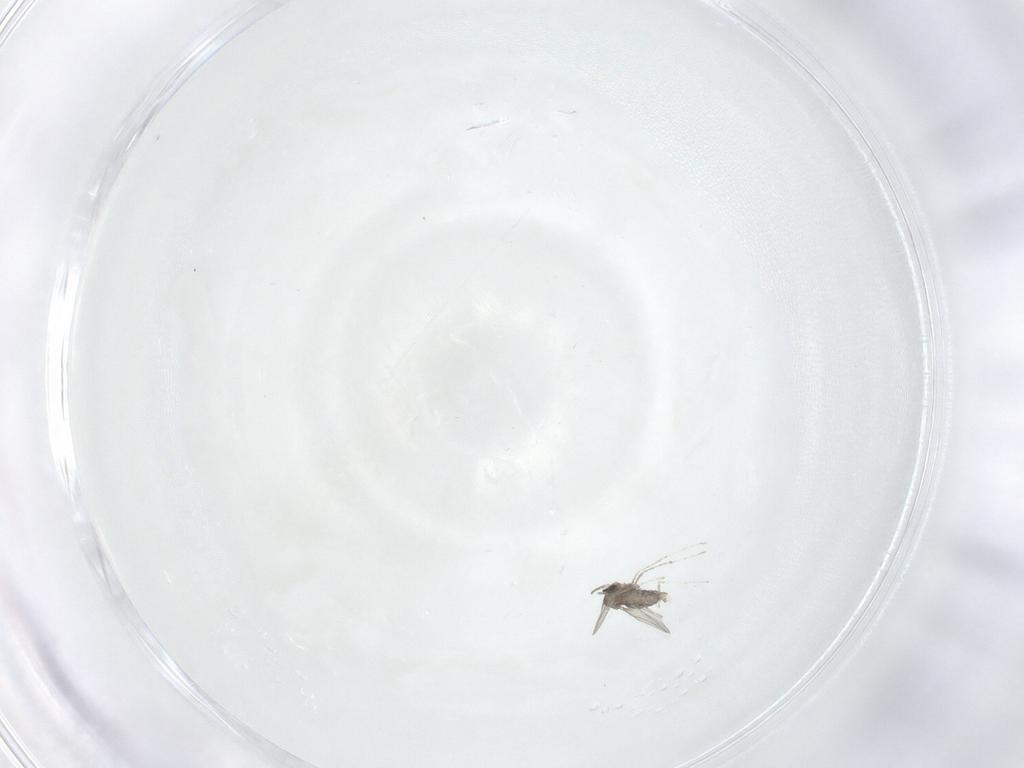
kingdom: Animalia
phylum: Arthropoda
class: Insecta
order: Diptera
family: Cecidomyiidae
